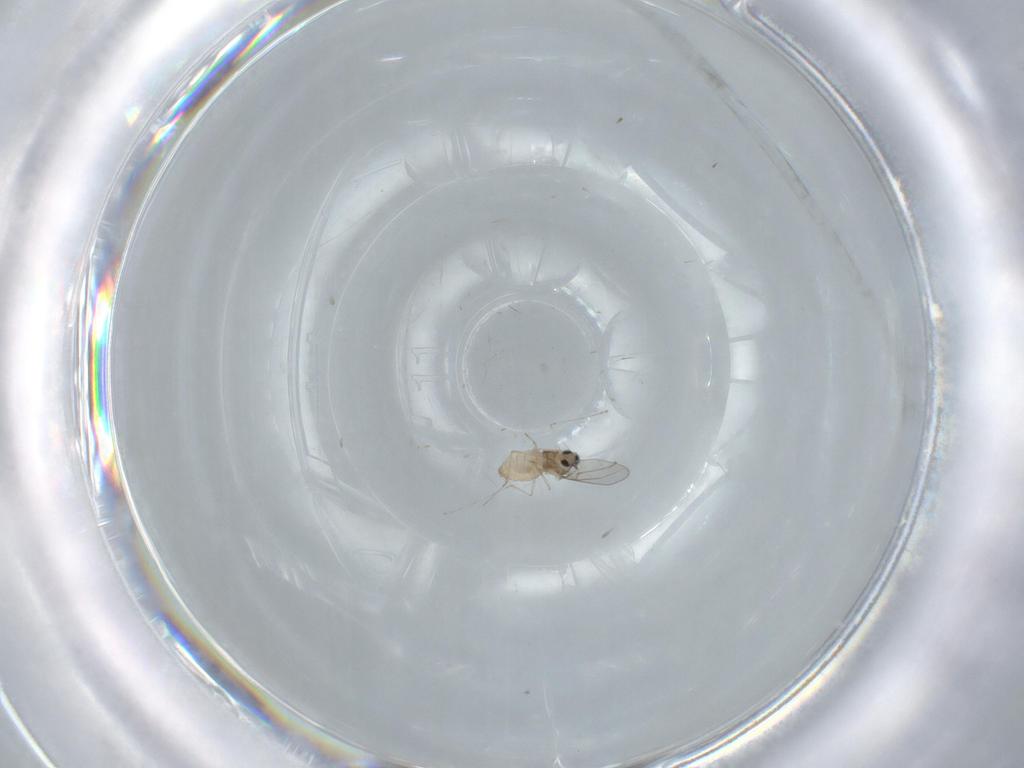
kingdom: Animalia
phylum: Arthropoda
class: Insecta
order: Diptera
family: Cecidomyiidae
